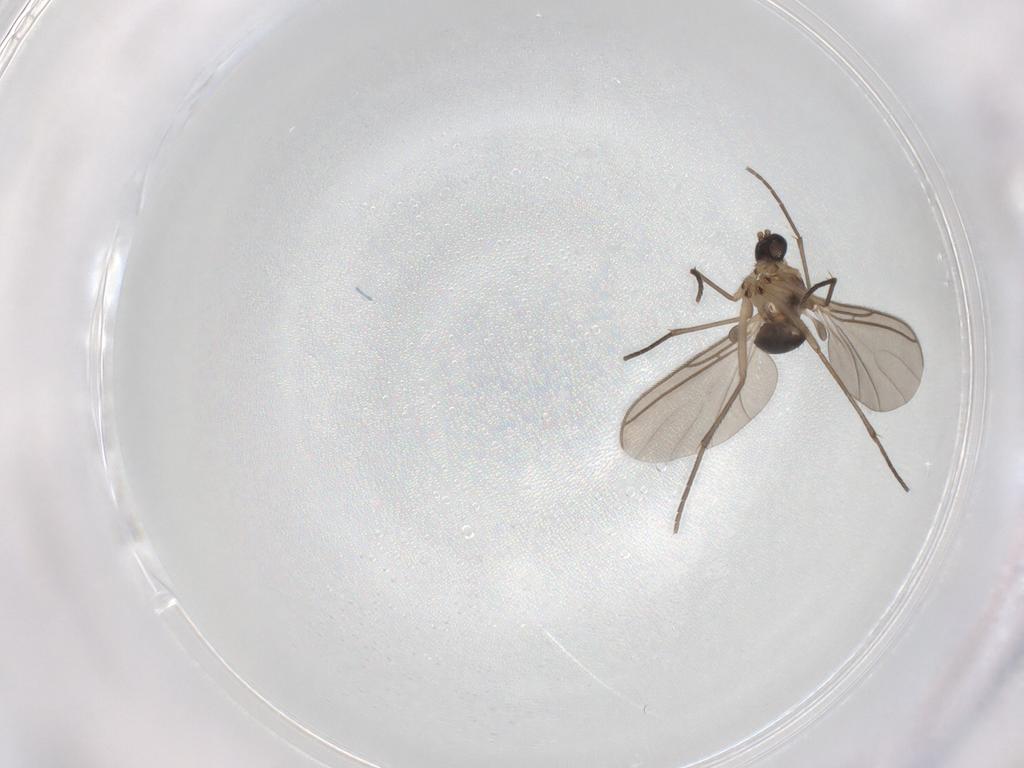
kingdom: Animalia
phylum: Arthropoda
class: Insecta
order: Diptera
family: Sciaridae
